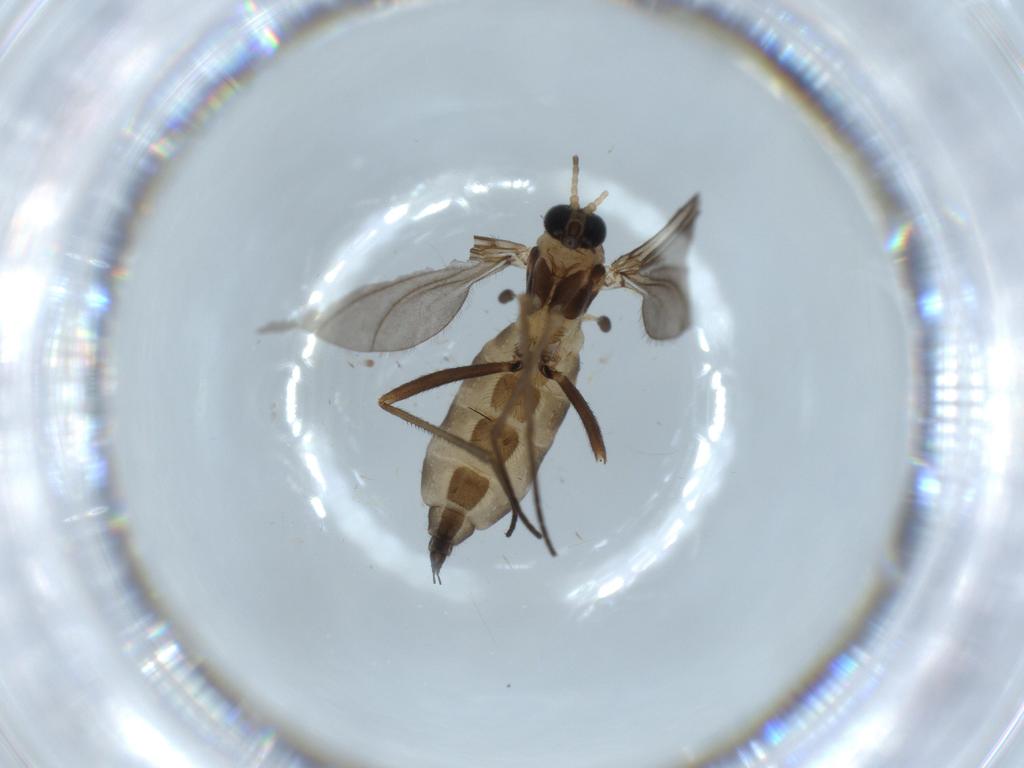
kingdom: Animalia
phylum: Arthropoda
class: Insecta
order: Diptera
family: Sciaridae
